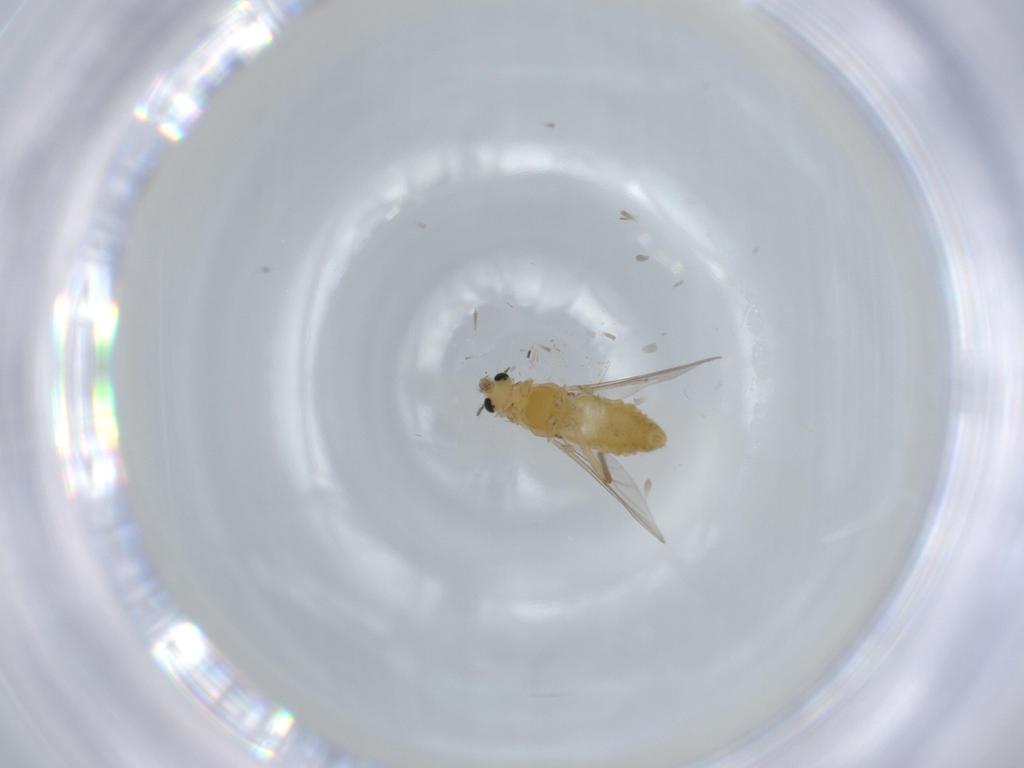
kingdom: Animalia
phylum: Arthropoda
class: Insecta
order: Diptera
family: Chironomidae
